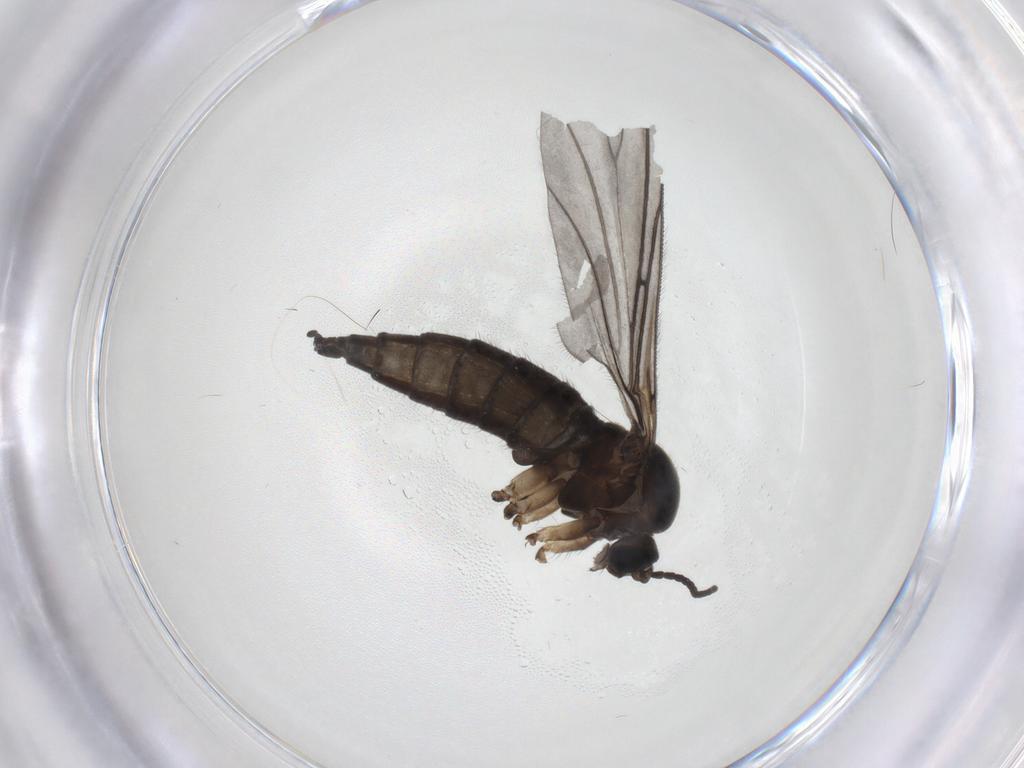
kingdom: Animalia
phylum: Arthropoda
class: Insecta
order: Diptera
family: Sciaridae
